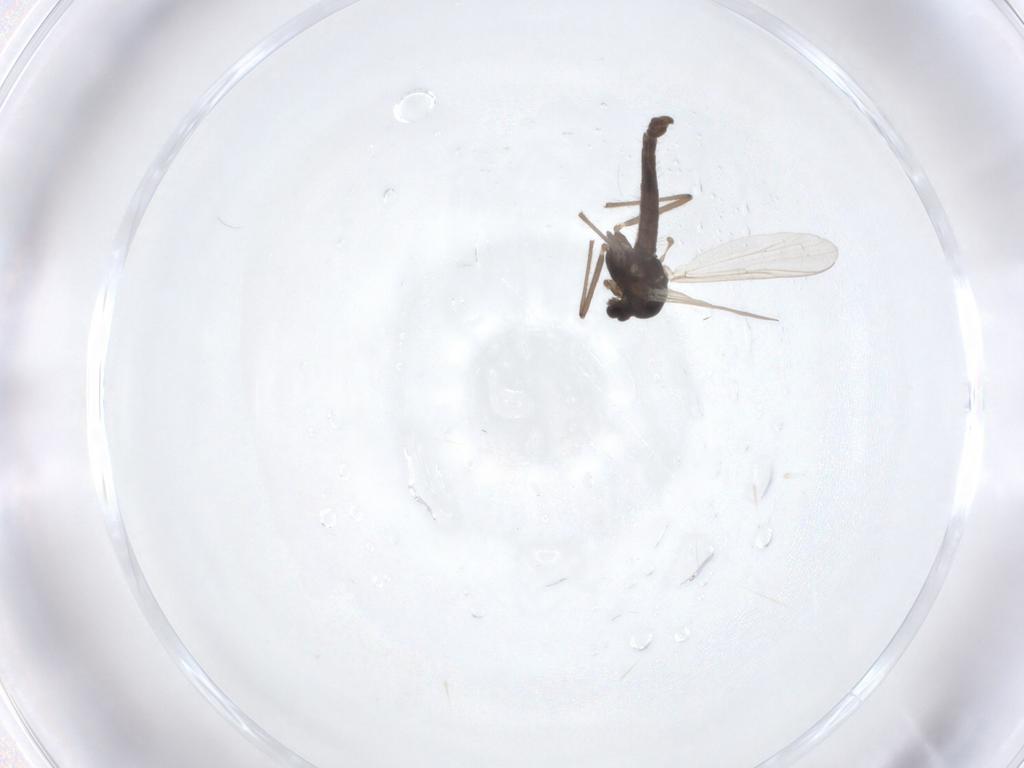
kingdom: Animalia
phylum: Arthropoda
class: Insecta
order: Diptera
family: Chironomidae
